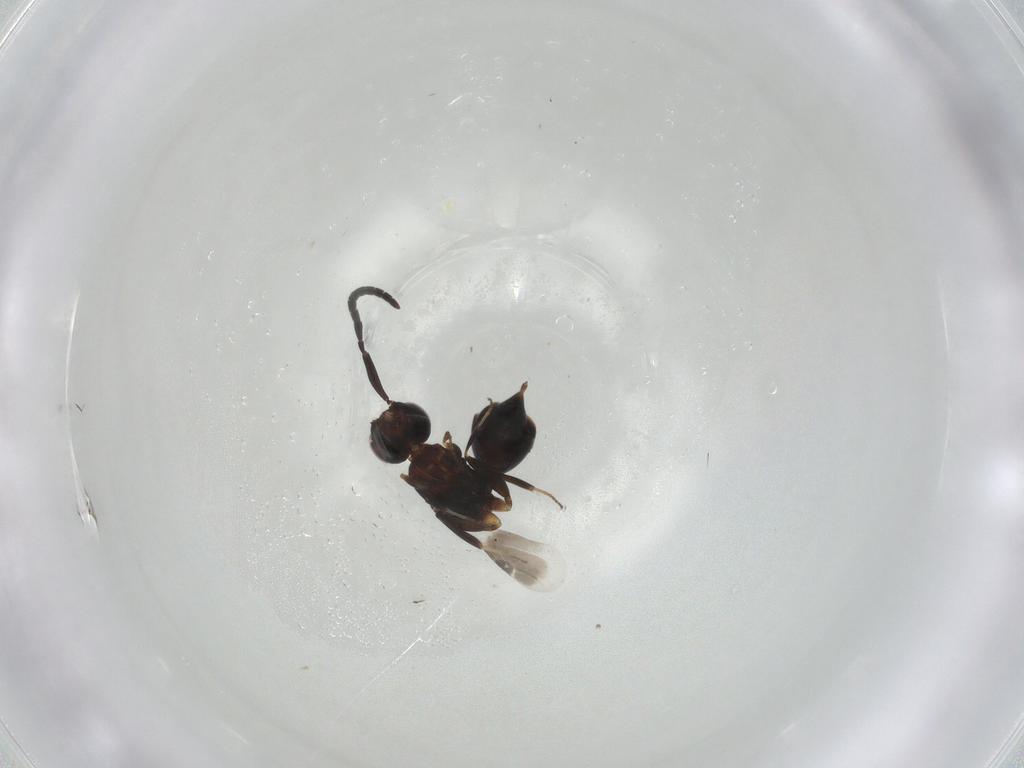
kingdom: Animalia
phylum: Arthropoda
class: Insecta
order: Hymenoptera
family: Megaspilidae
